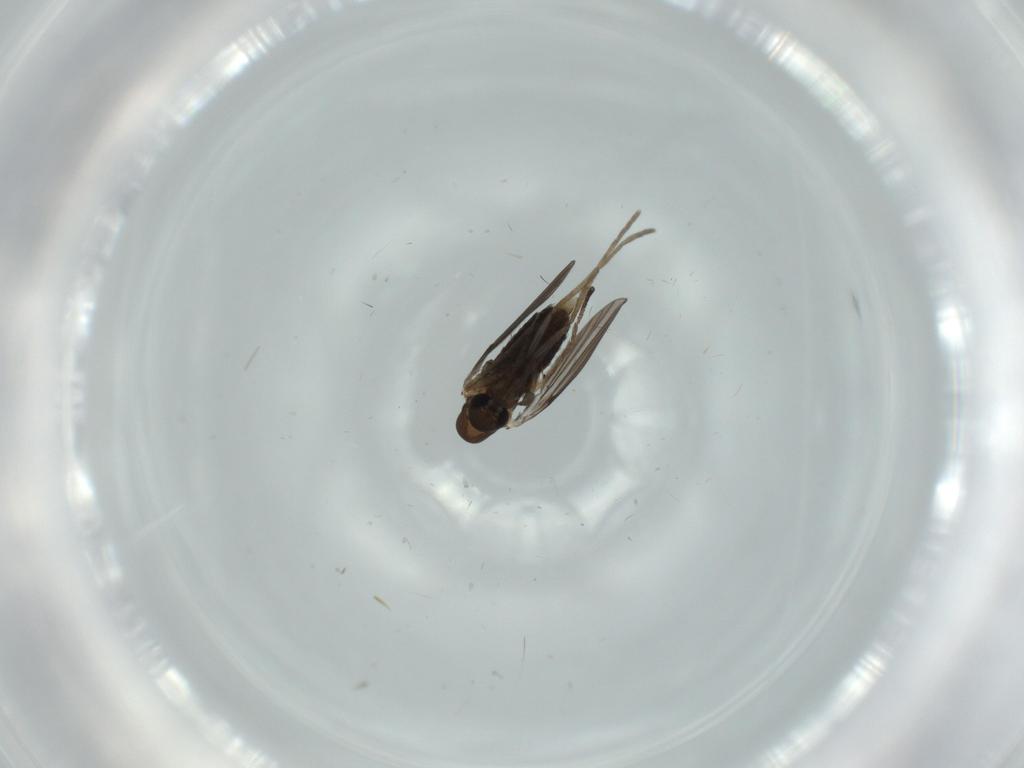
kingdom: Animalia
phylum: Arthropoda
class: Insecta
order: Diptera
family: Psychodidae
